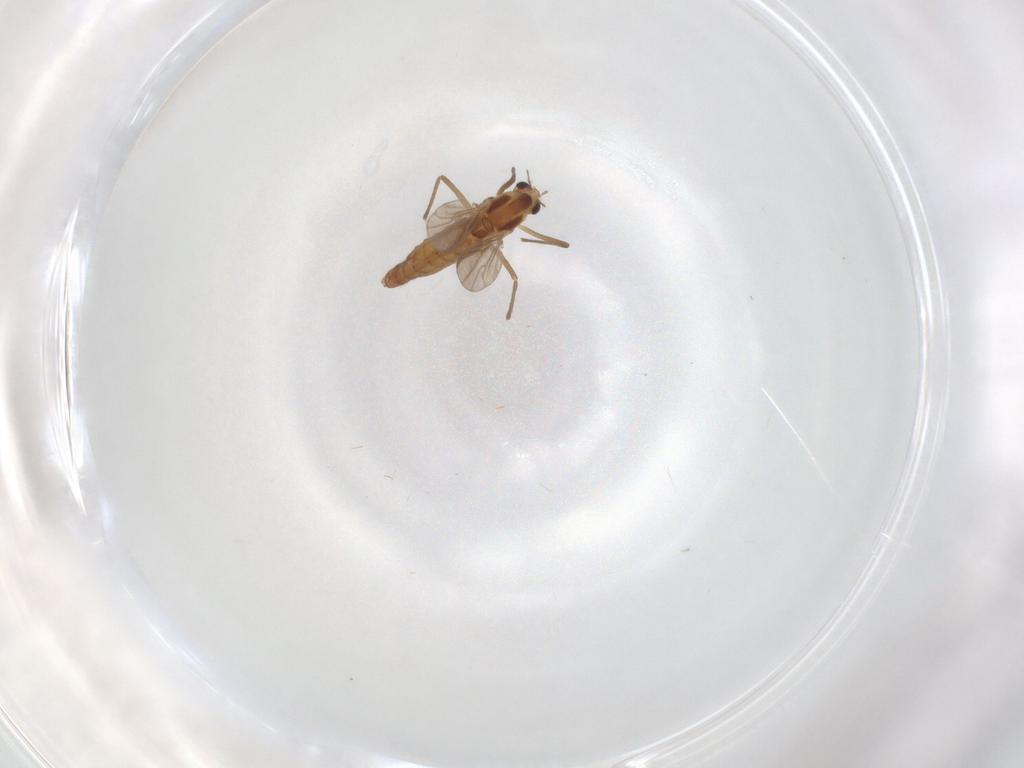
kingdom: Animalia
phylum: Arthropoda
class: Insecta
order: Diptera
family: Chironomidae
